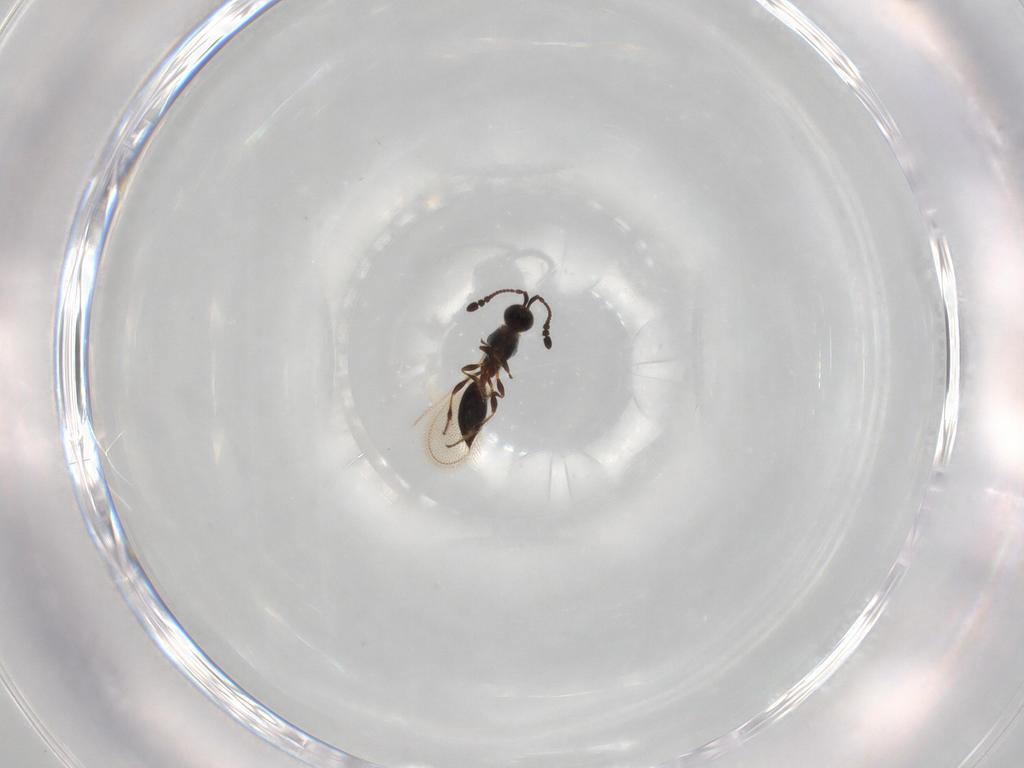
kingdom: Animalia
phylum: Arthropoda
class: Insecta
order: Hymenoptera
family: Diapriidae
